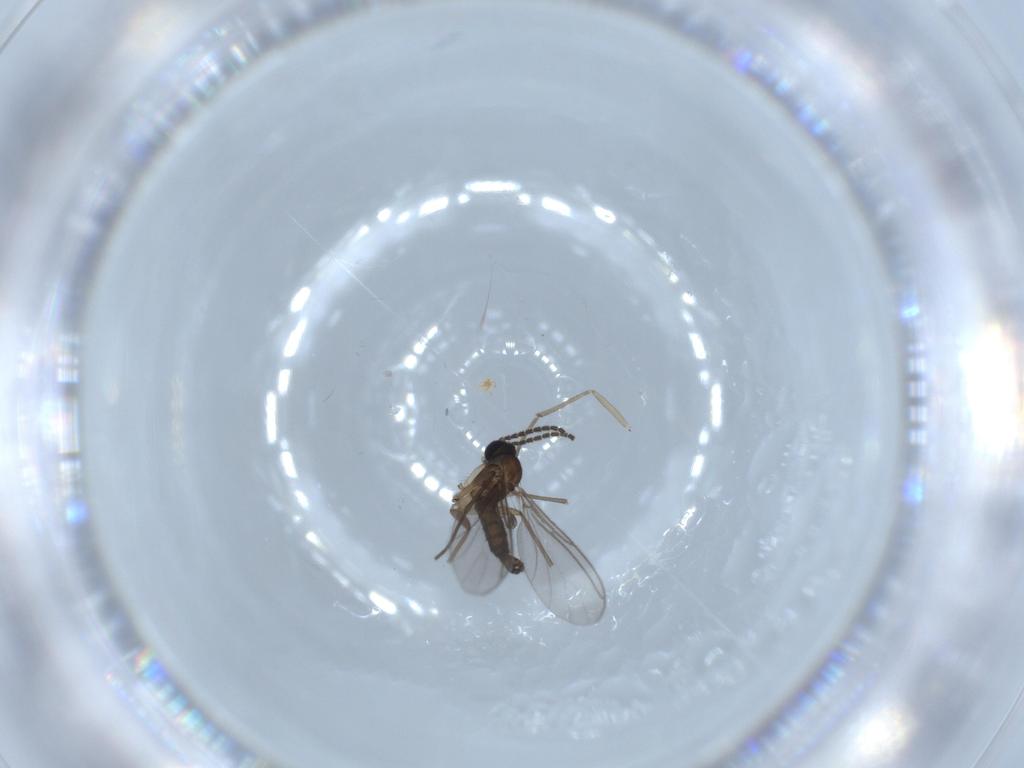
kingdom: Animalia
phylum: Arthropoda
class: Insecta
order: Diptera
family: Sciaridae
